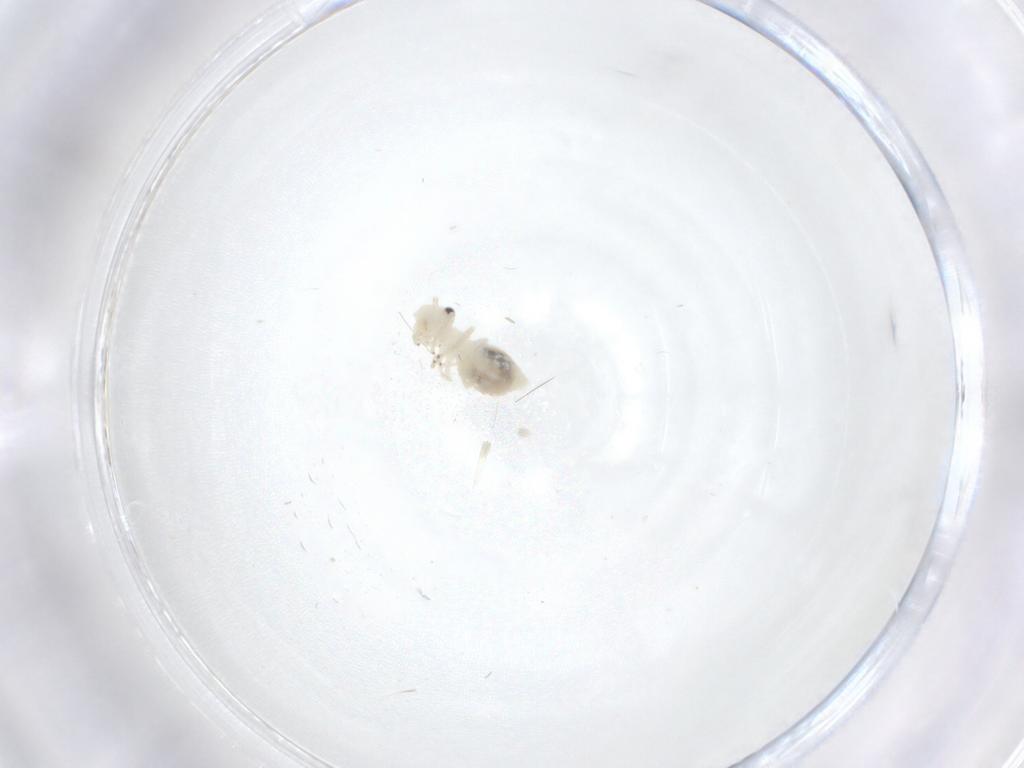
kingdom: Animalia
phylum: Arthropoda
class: Insecta
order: Psocodea
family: Caeciliusidae
